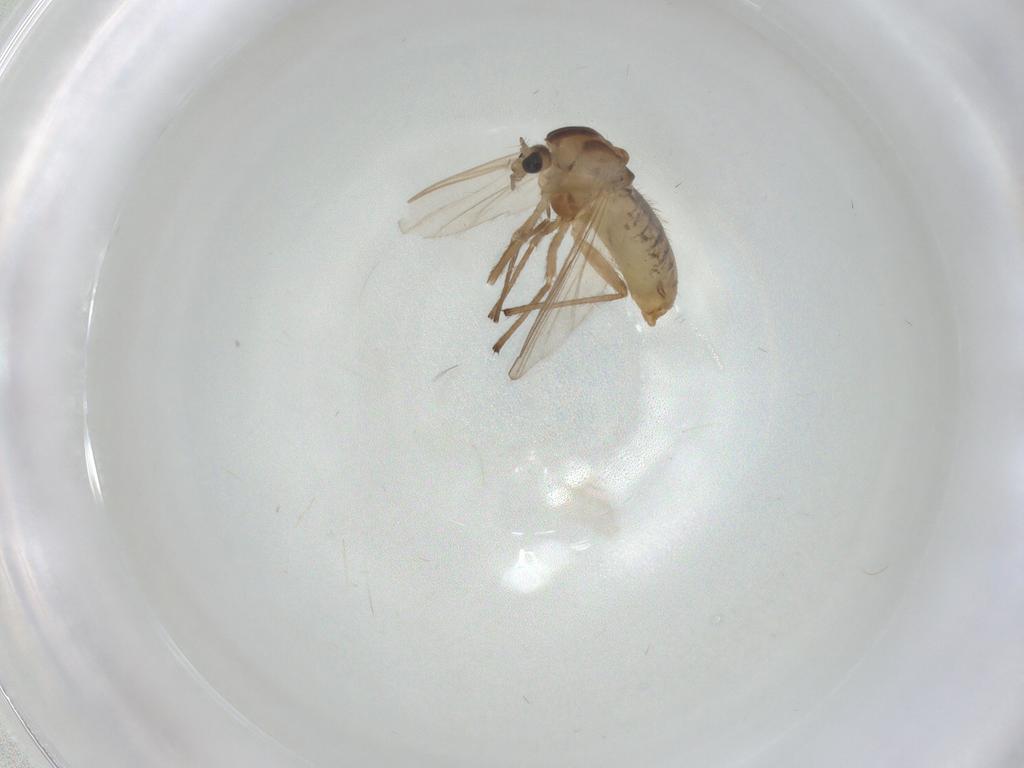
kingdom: Animalia
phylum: Arthropoda
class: Insecta
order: Diptera
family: Cecidomyiidae
